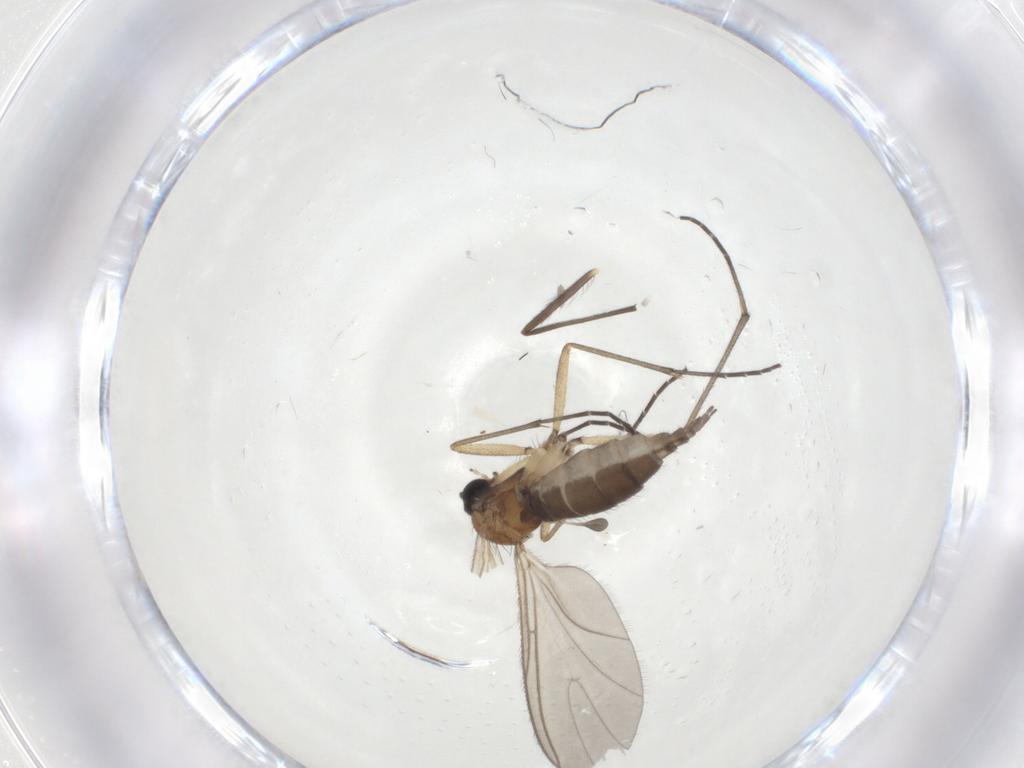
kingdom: Animalia
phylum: Arthropoda
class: Insecta
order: Diptera
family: Sciaridae
